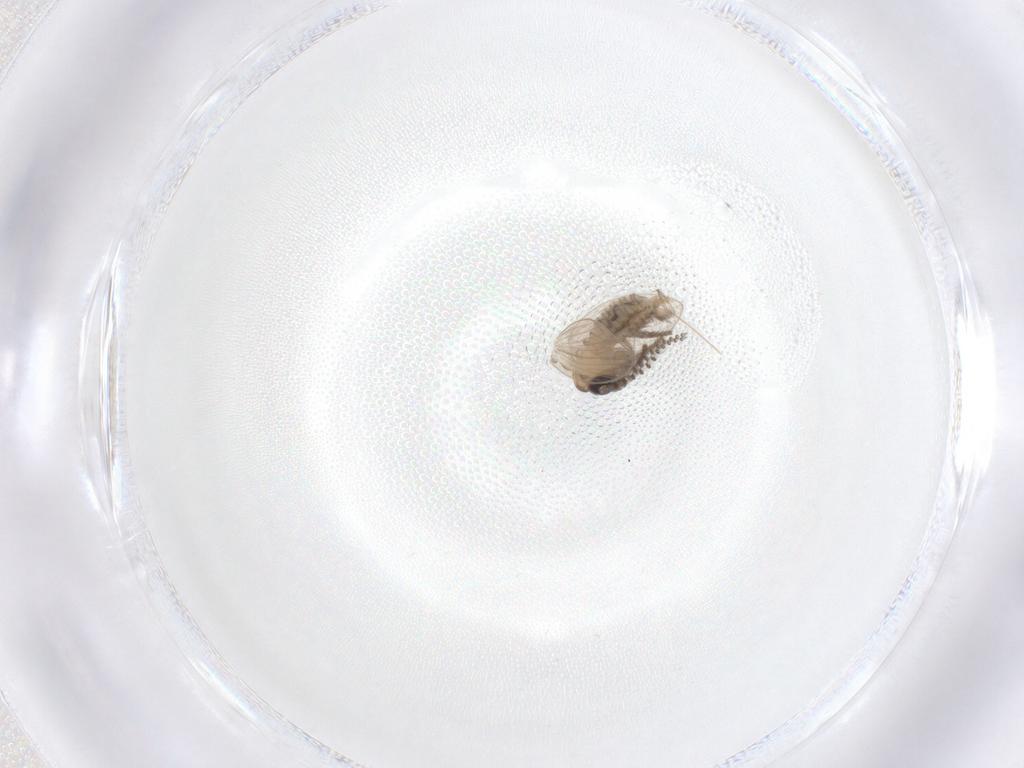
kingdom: Animalia
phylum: Arthropoda
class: Insecta
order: Diptera
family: Psychodidae
